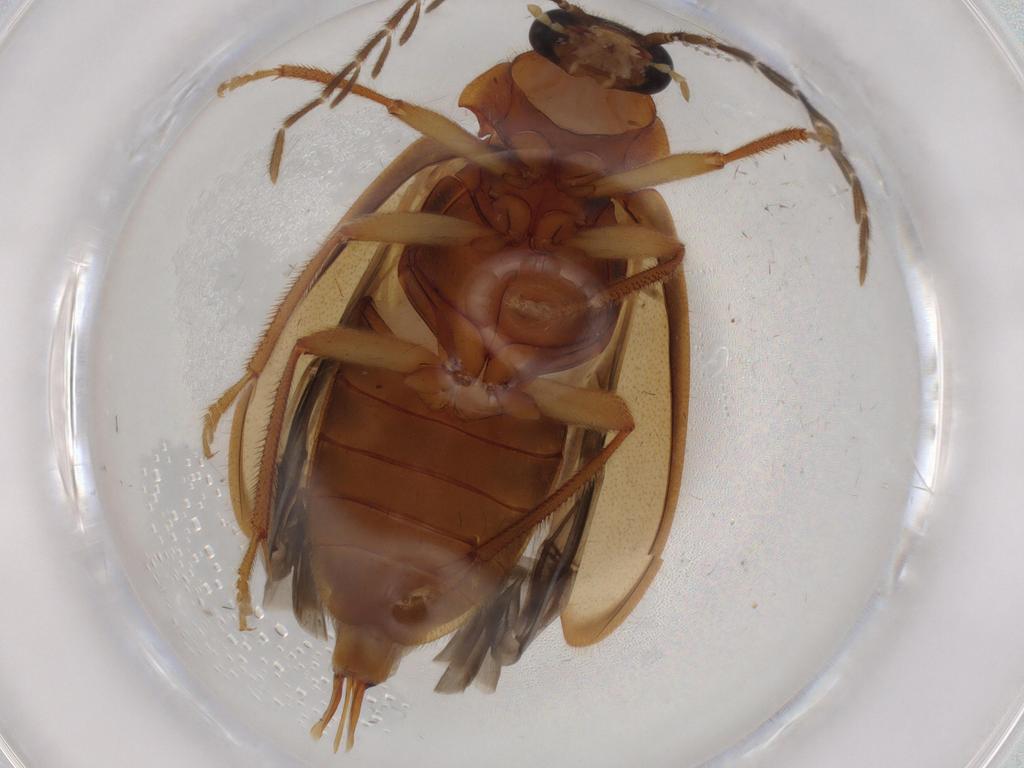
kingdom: Animalia
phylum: Arthropoda
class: Insecta
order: Coleoptera
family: Ptilodactylidae
